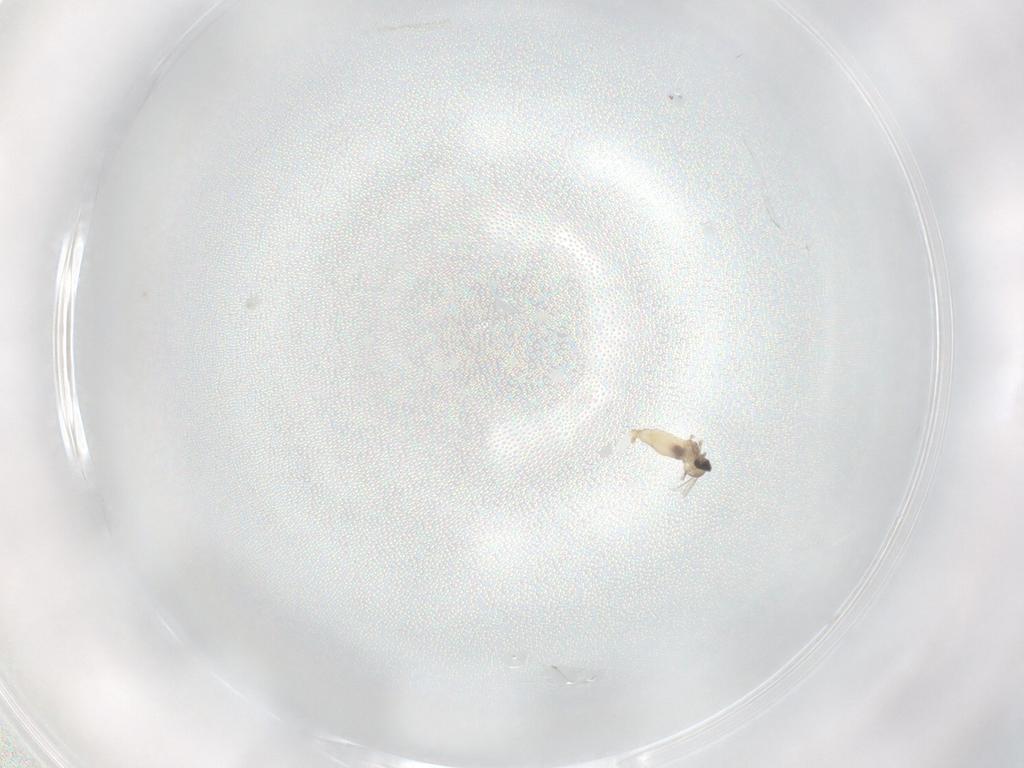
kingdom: Animalia
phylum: Arthropoda
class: Insecta
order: Diptera
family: Cecidomyiidae
